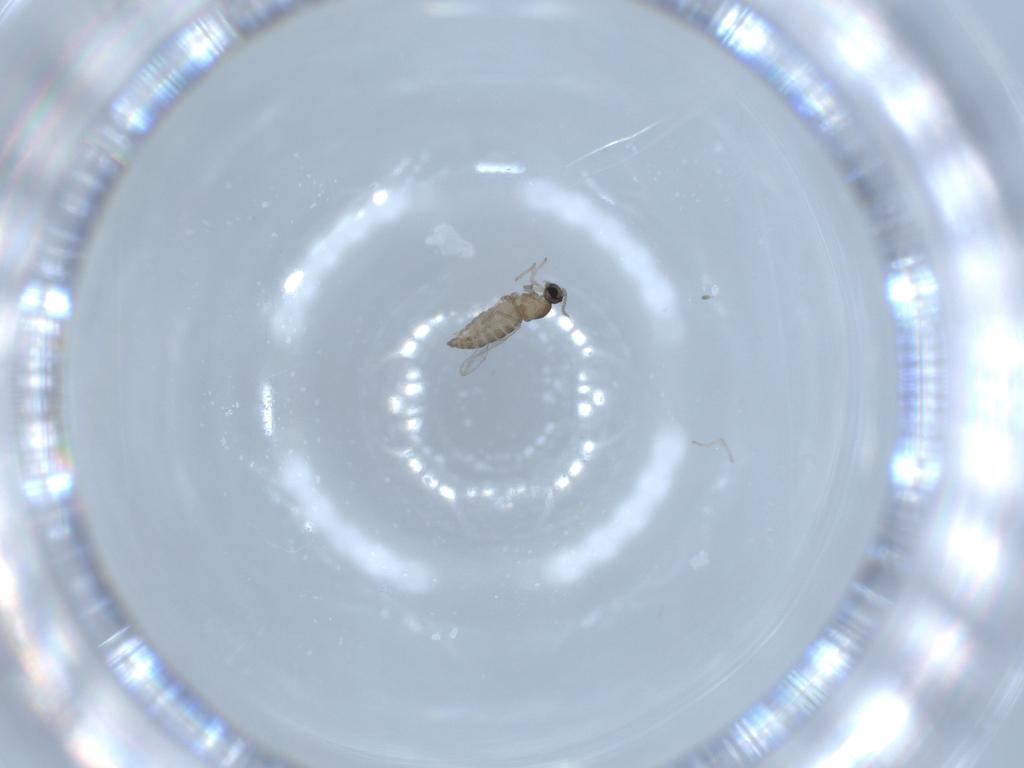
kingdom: Animalia
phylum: Arthropoda
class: Insecta
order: Diptera
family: Cecidomyiidae
